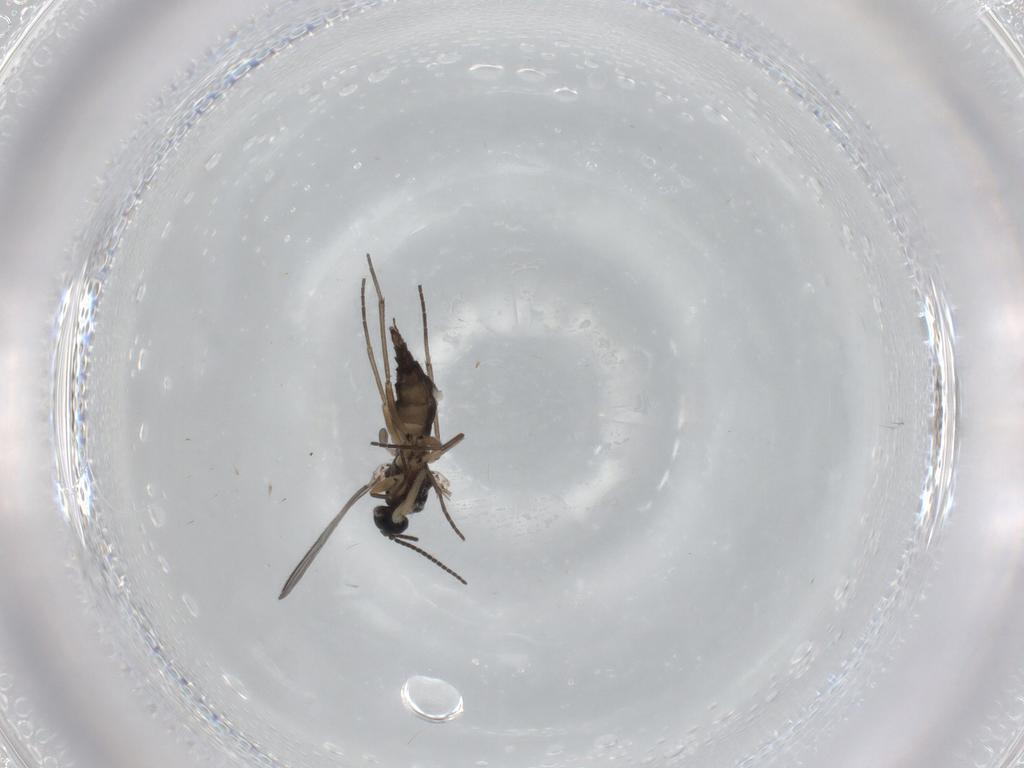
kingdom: Animalia
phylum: Arthropoda
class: Insecta
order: Diptera
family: Sciaridae
